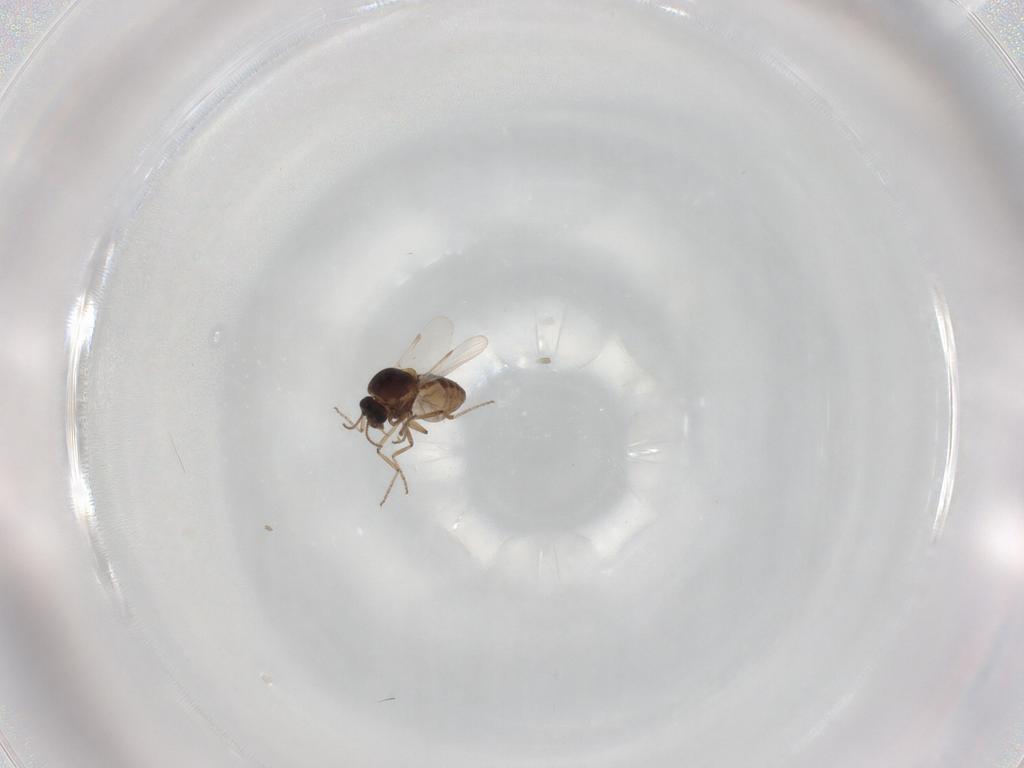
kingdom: Animalia
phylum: Arthropoda
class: Insecta
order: Diptera
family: Ceratopogonidae
